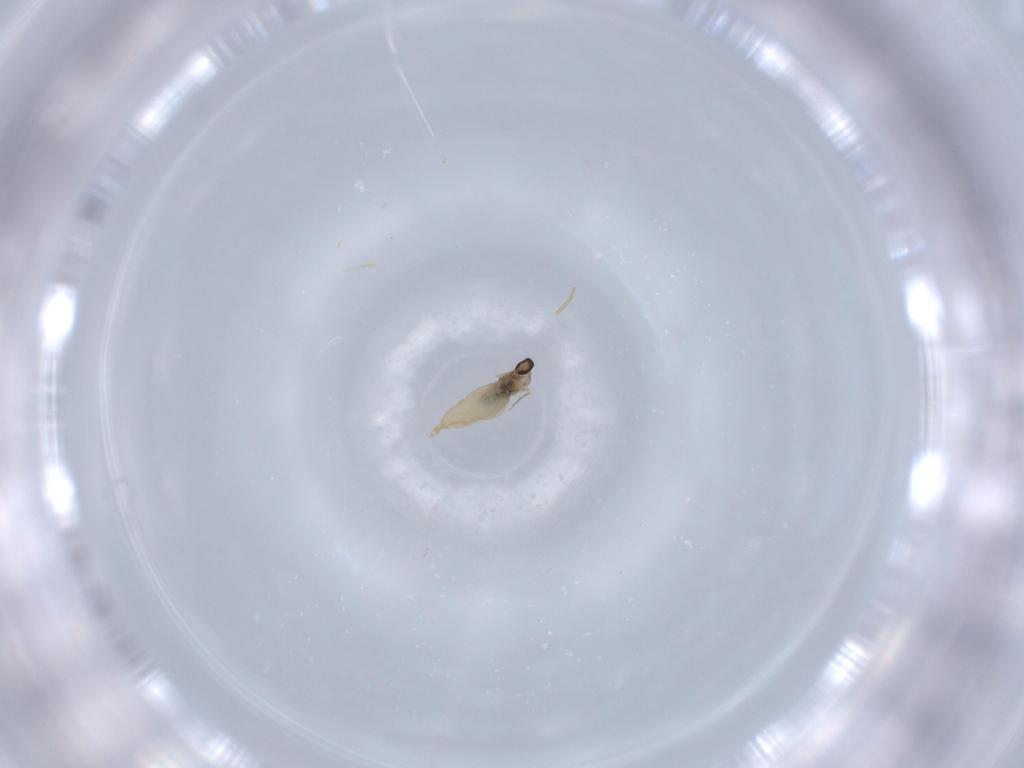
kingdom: Animalia
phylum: Arthropoda
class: Insecta
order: Diptera
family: Cecidomyiidae
